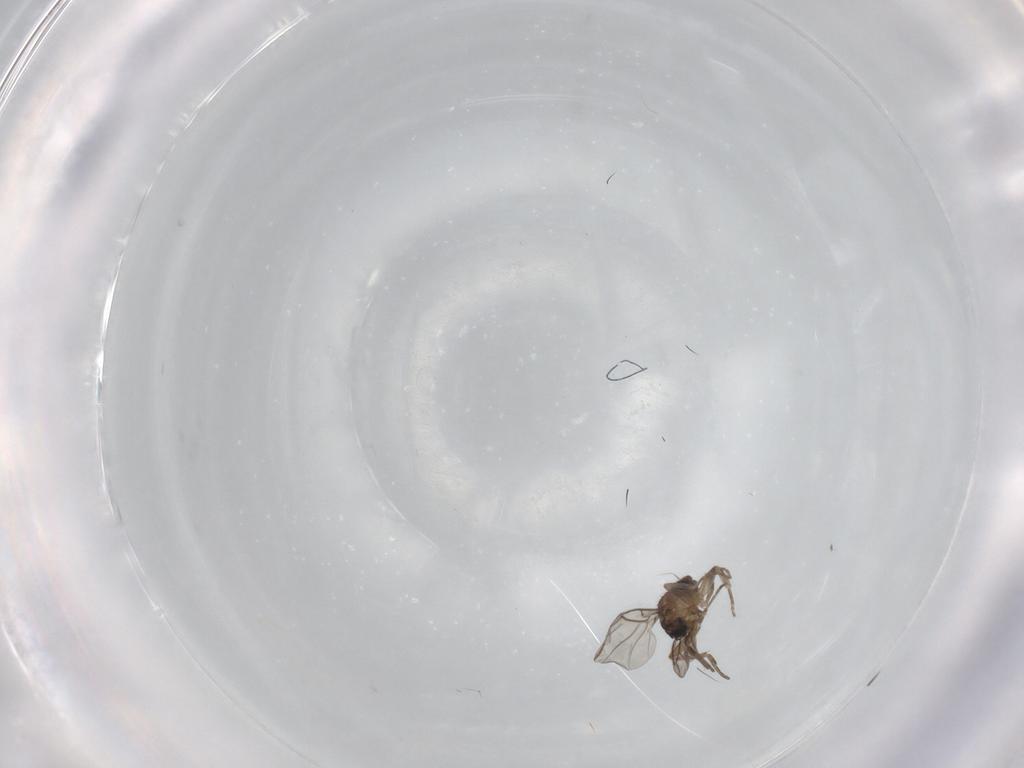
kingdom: Animalia
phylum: Arthropoda
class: Insecta
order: Diptera
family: Phoridae
